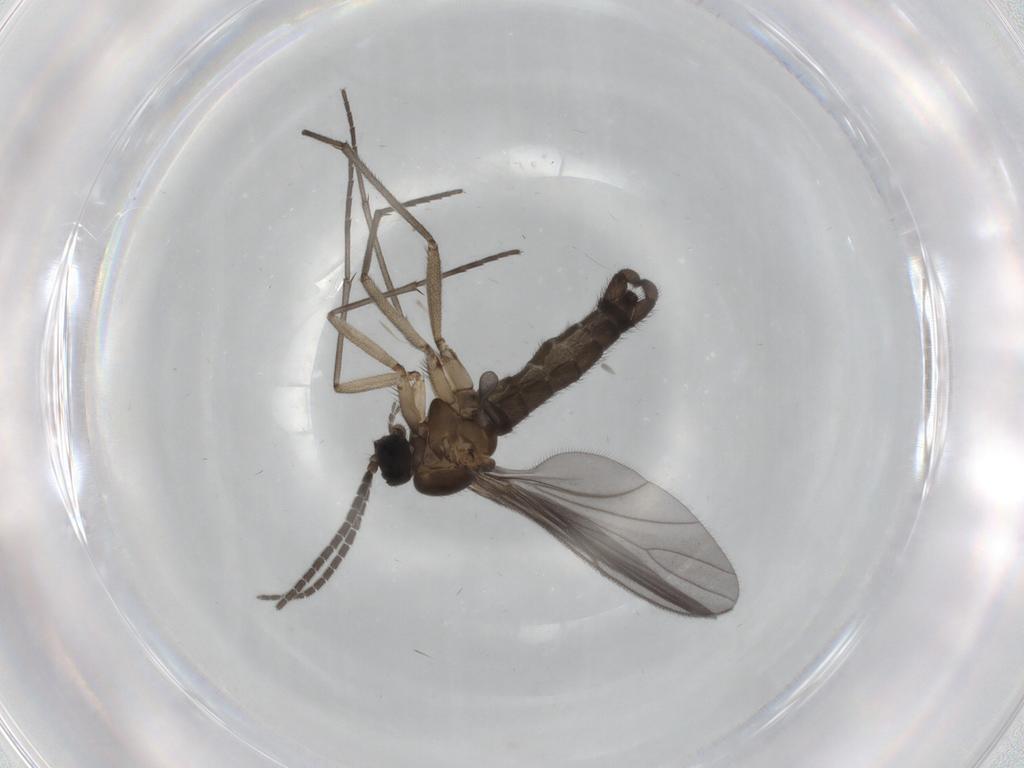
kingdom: Animalia
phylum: Arthropoda
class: Insecta
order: Diptera
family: Sciaridae
